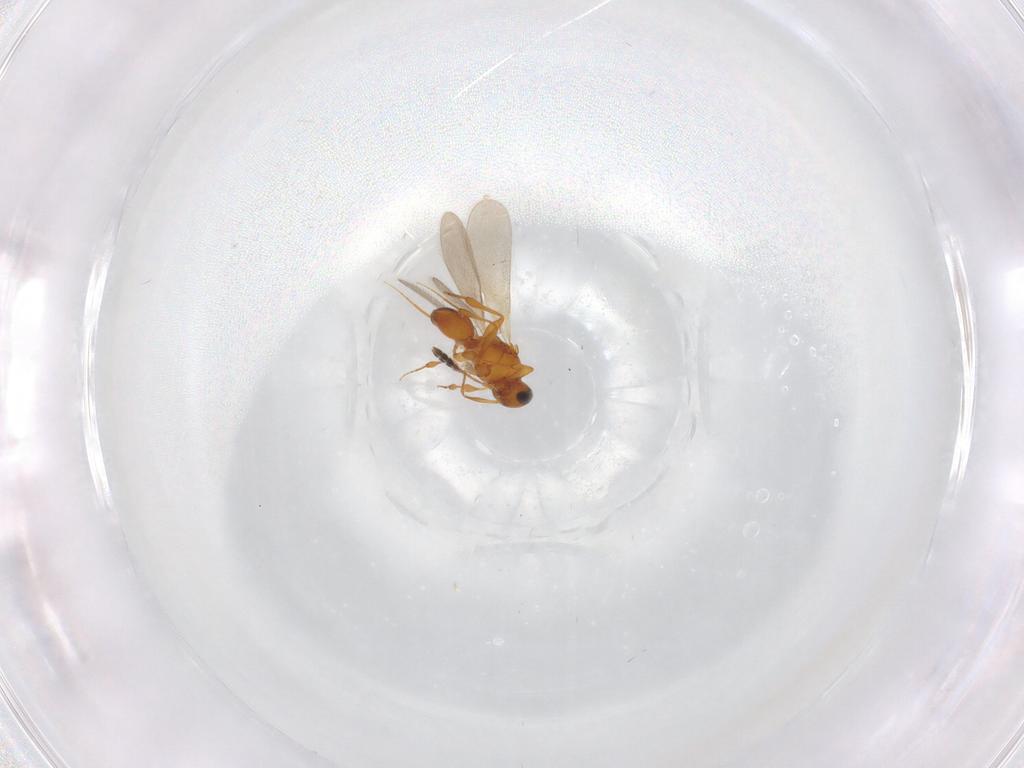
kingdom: Animalia
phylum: Arthropoda
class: Insecta
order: Hymenoptera
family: Platygastridae
